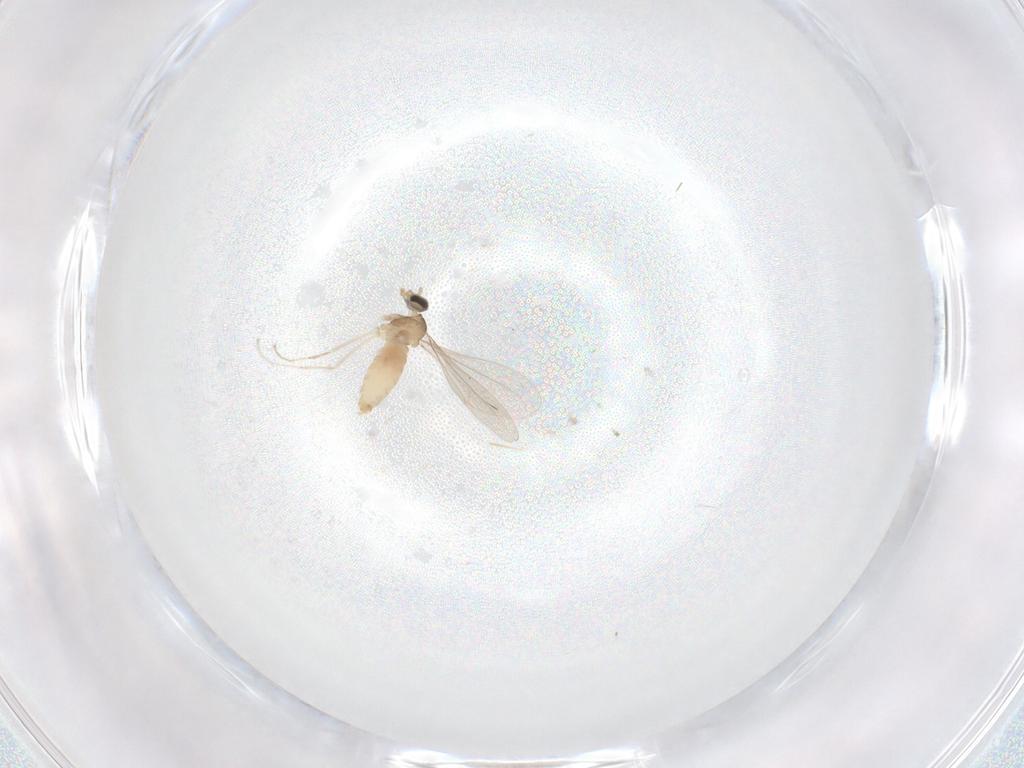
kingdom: Animalia
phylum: Arthropoda
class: Insecta
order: Diptera
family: Cecidomyiidae
